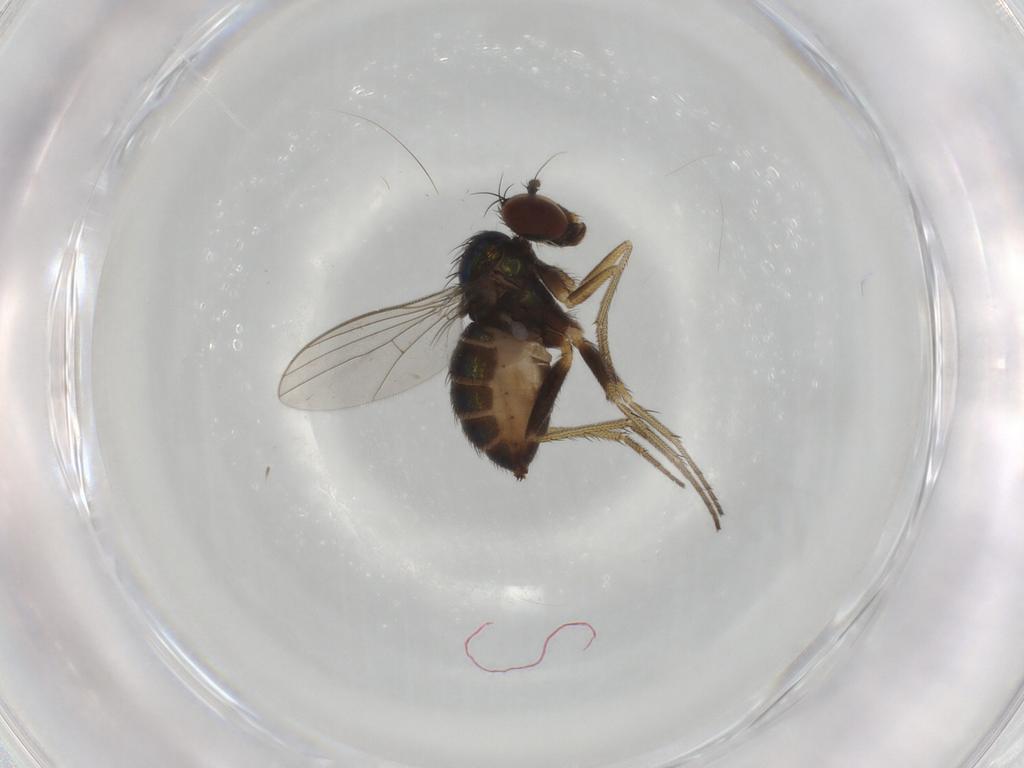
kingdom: Animalia
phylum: Arthropoda
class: Insecta
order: Diptera
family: Dolichopodidae
